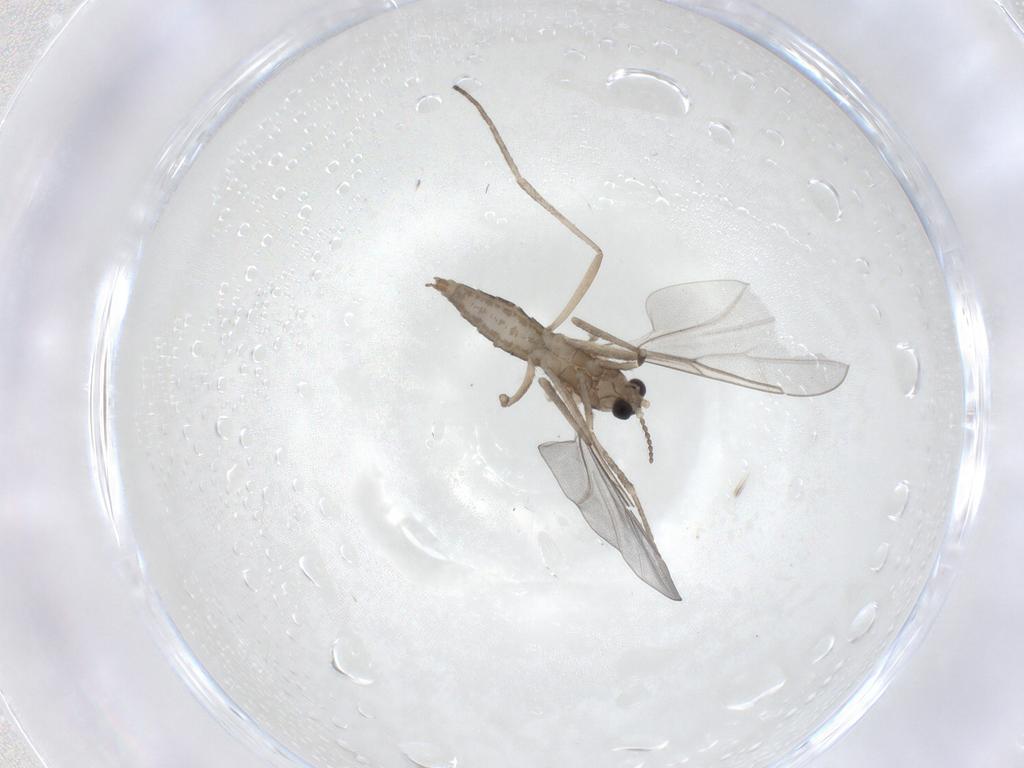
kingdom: Animalia
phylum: Arthropoda
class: Insecta
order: Diptera
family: Cecidomyiidae
